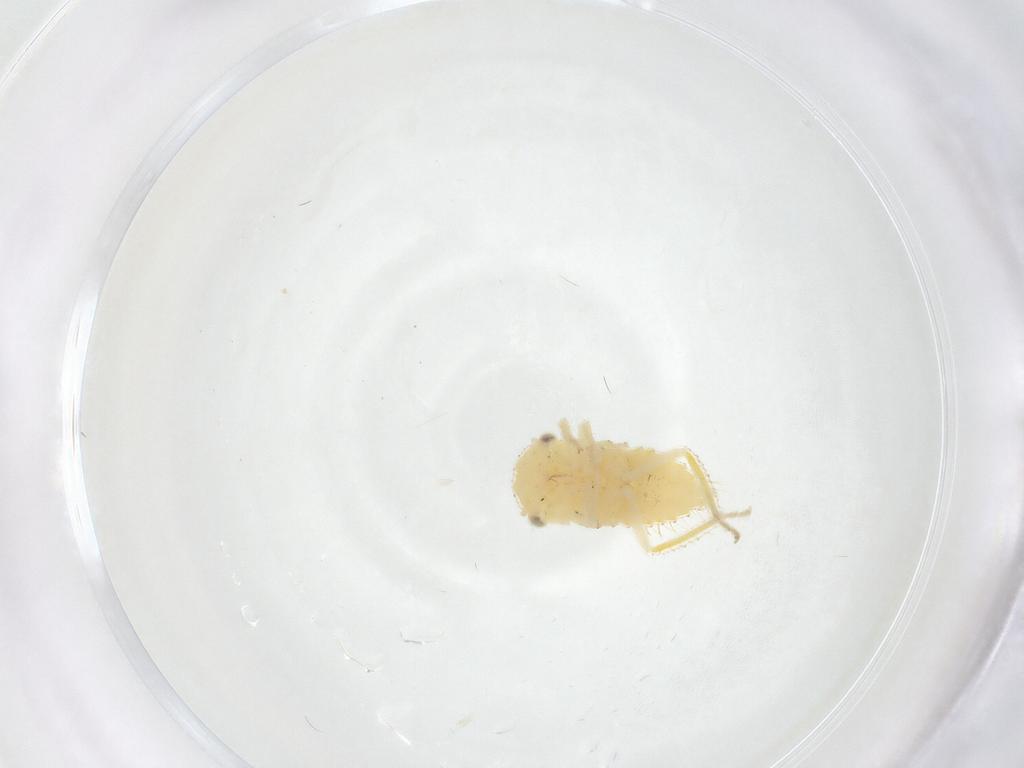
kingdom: Animalia
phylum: Arthropoda
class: Insecta
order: Hemiptera
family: Cicadellidae
